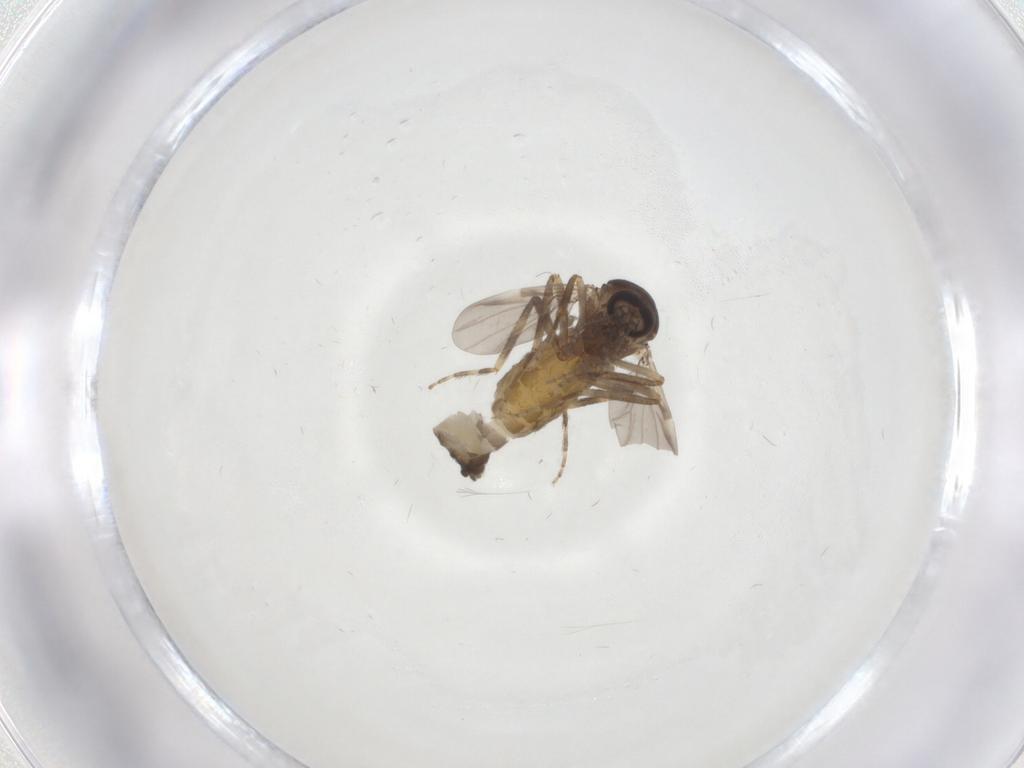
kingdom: Animalia
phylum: Arthropoda
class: Insecta
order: Diptera
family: Ceratopogonidae
